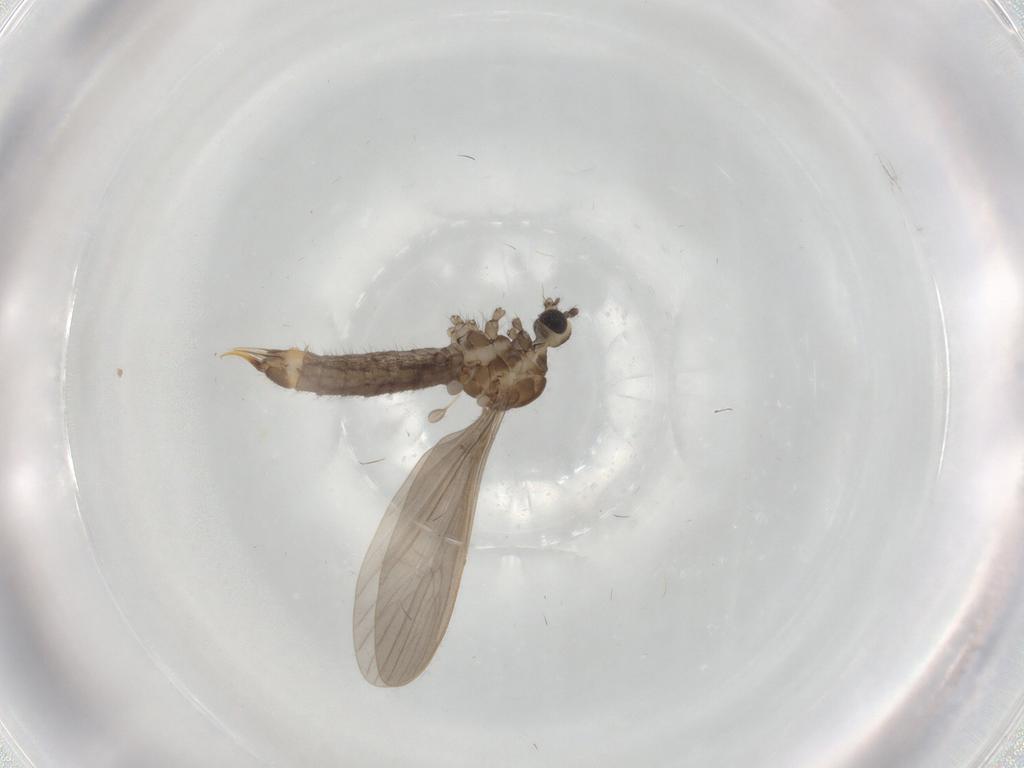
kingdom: Animalia
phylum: Arthropoda
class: Insecta
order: Diptera
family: Limoniidae
